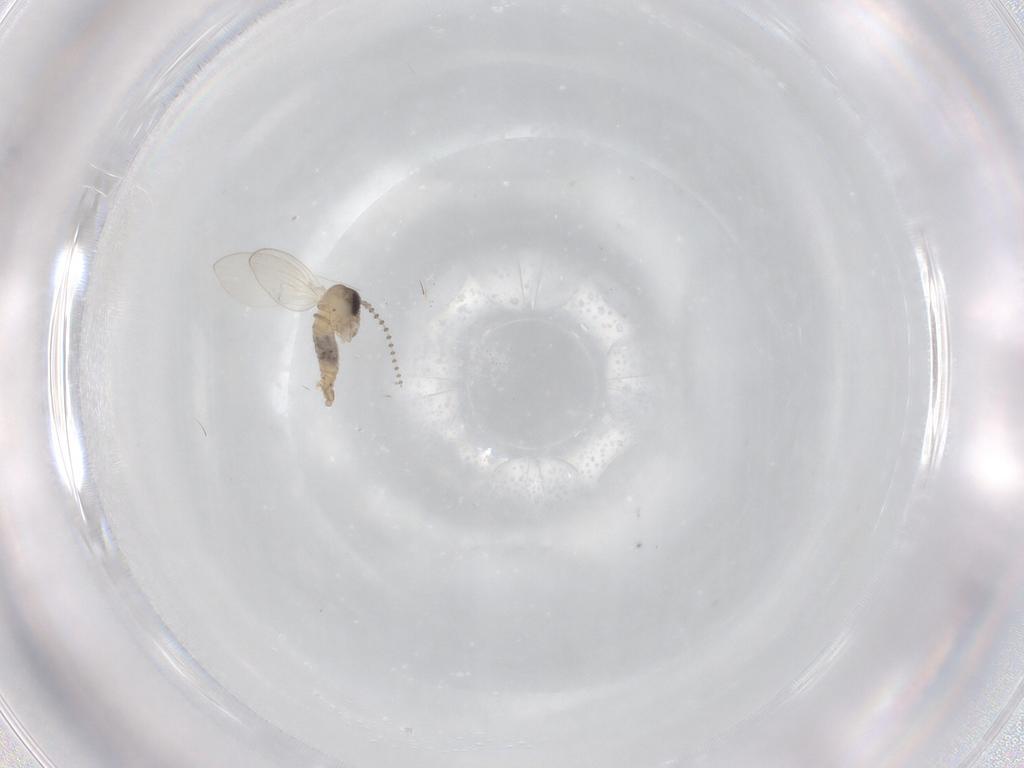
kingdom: Animalia
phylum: Arthropoda
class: Insecta
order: Diptera
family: Psychodidae
